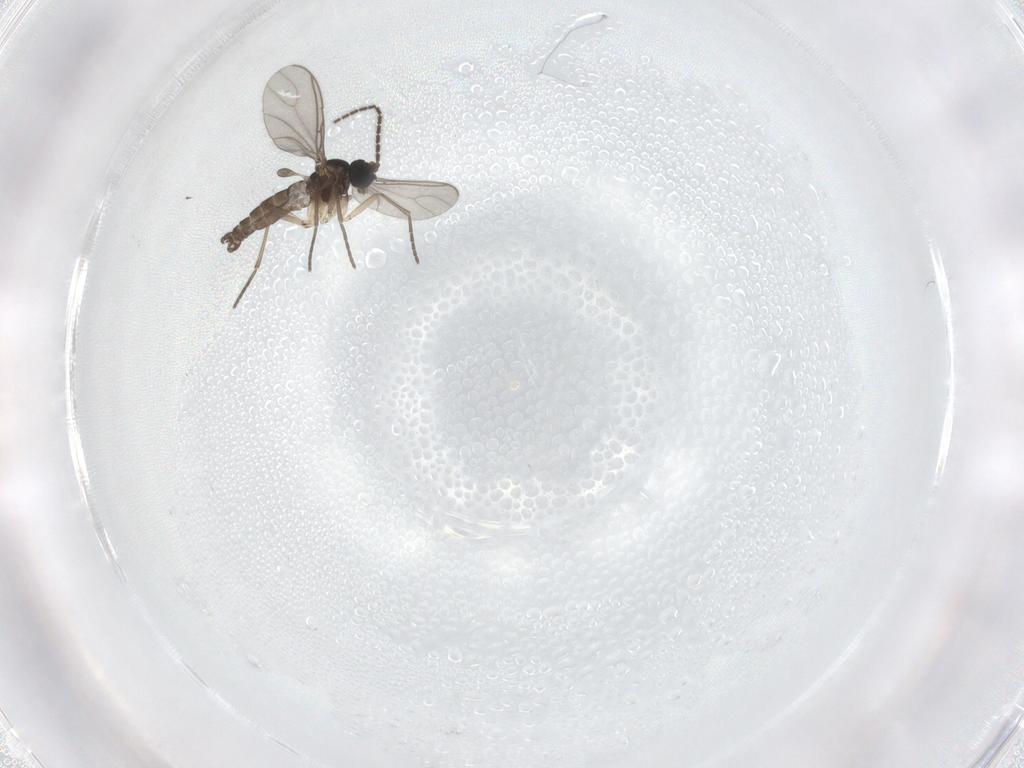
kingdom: Animalia
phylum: Arthropoda
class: Insecta
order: Diptera
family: Sciaridae
